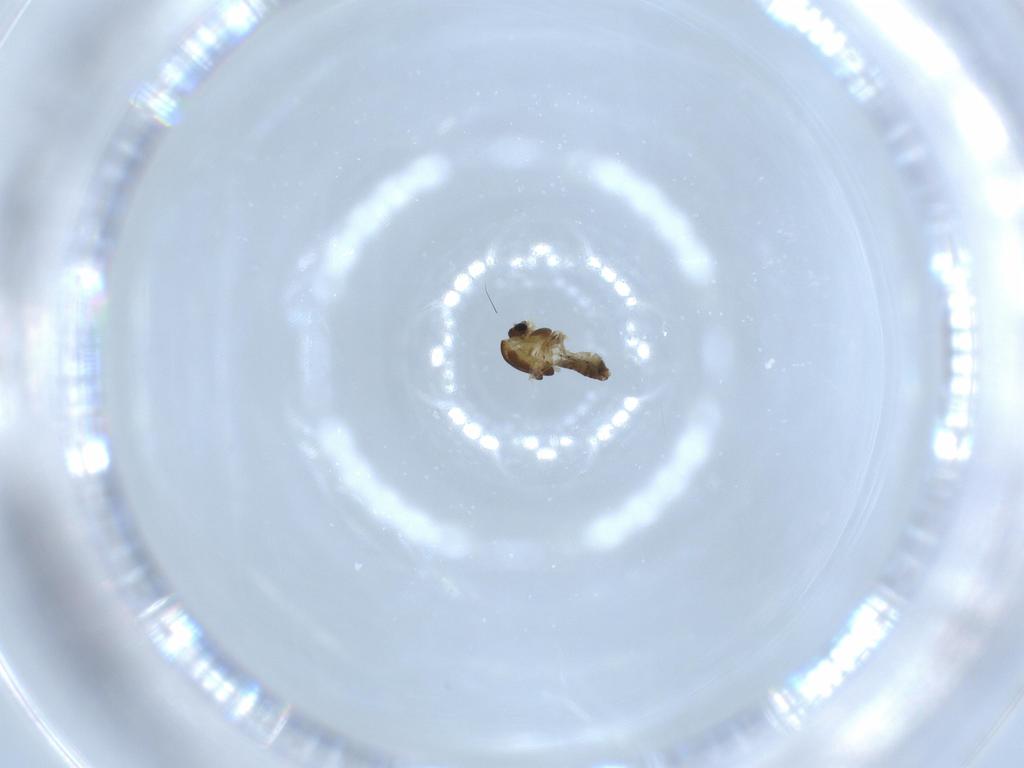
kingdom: Animalia
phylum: Arthropoda
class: Insecta
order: Diptera
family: Chironomidae
